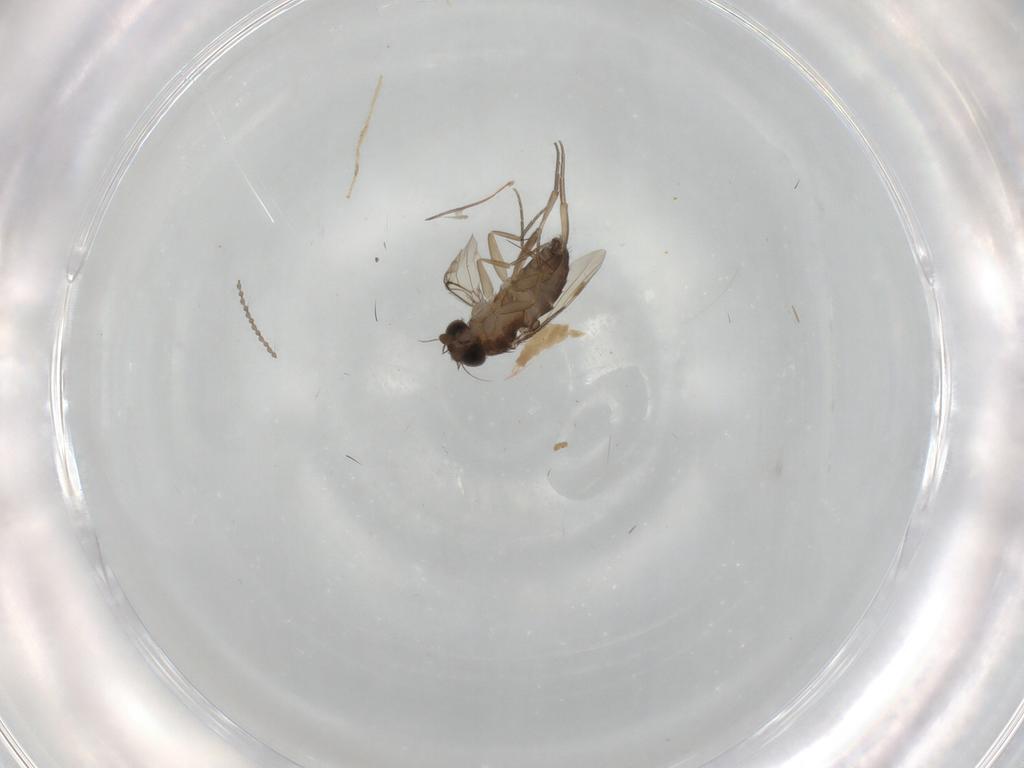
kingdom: Animalia
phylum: Arthropoda
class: Insecta
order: Diptera
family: Phoridae
